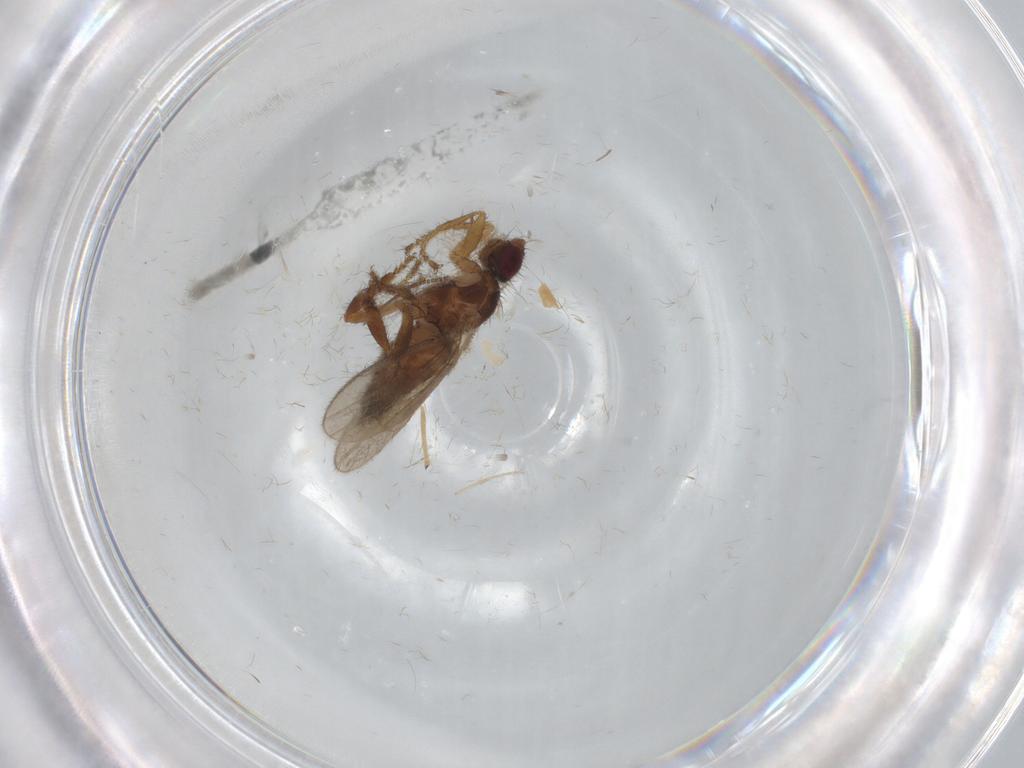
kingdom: Animalia
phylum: Arthropoda
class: Insecta
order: Diptera
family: Sphaeroceridae
